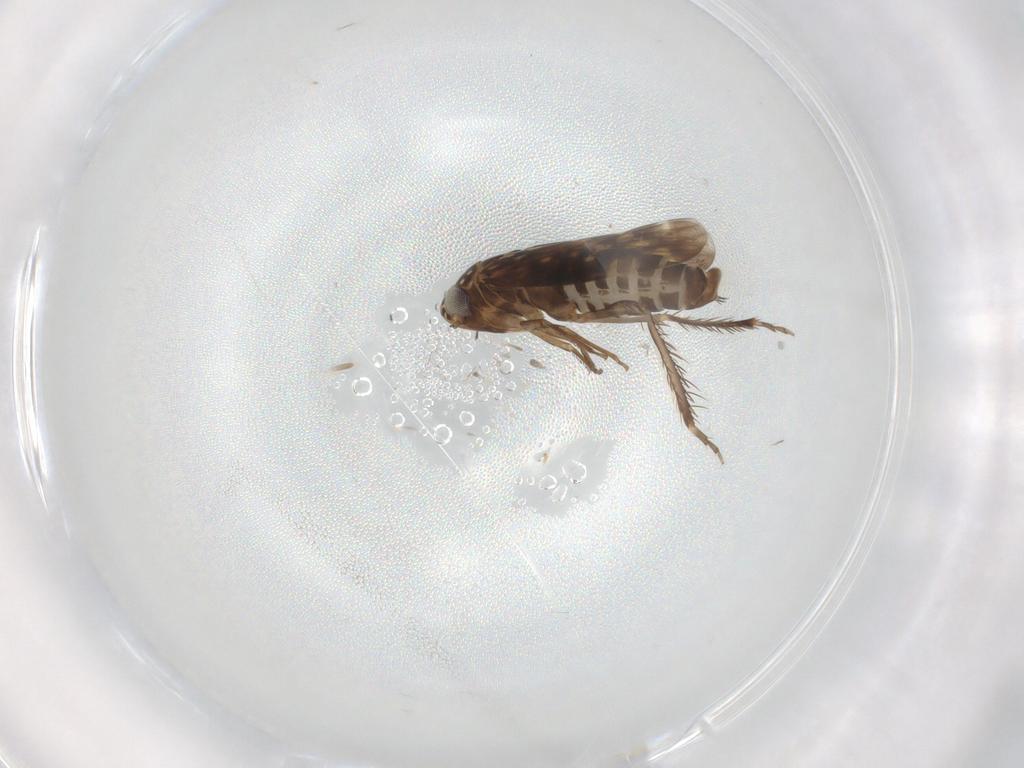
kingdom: Animalia
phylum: Arthropoda
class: Insecta
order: Hemiptera
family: Cicadellidae
